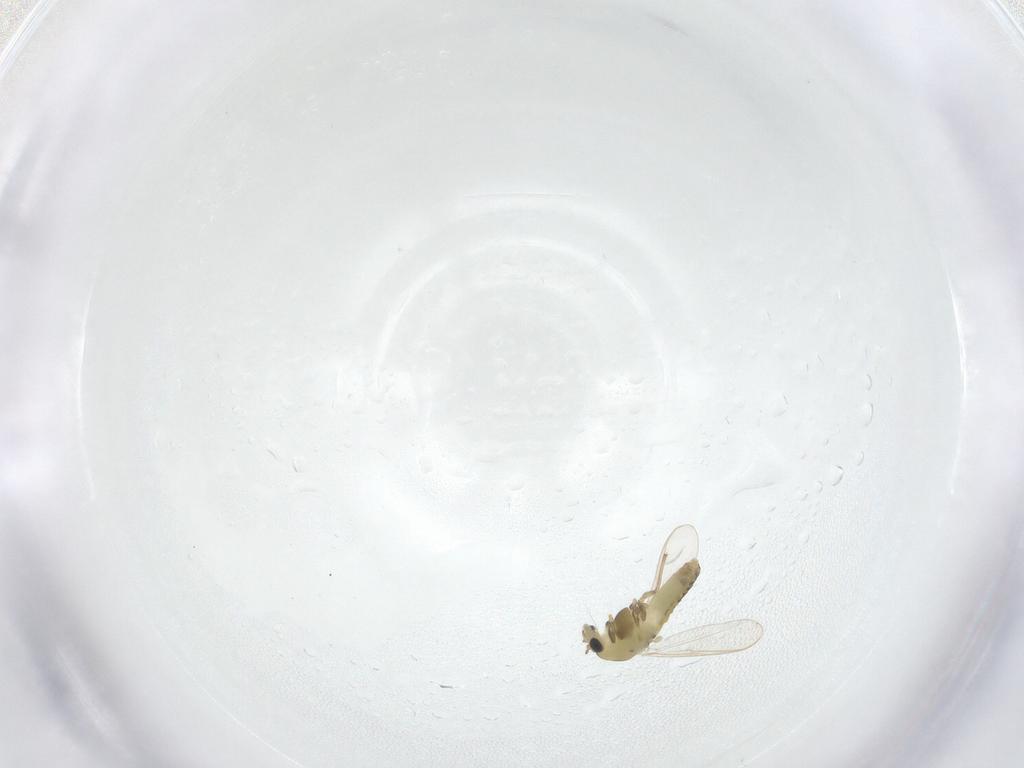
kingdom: Animalia
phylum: Arthropoda
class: Insecta
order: Diptera
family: Chironomidae
